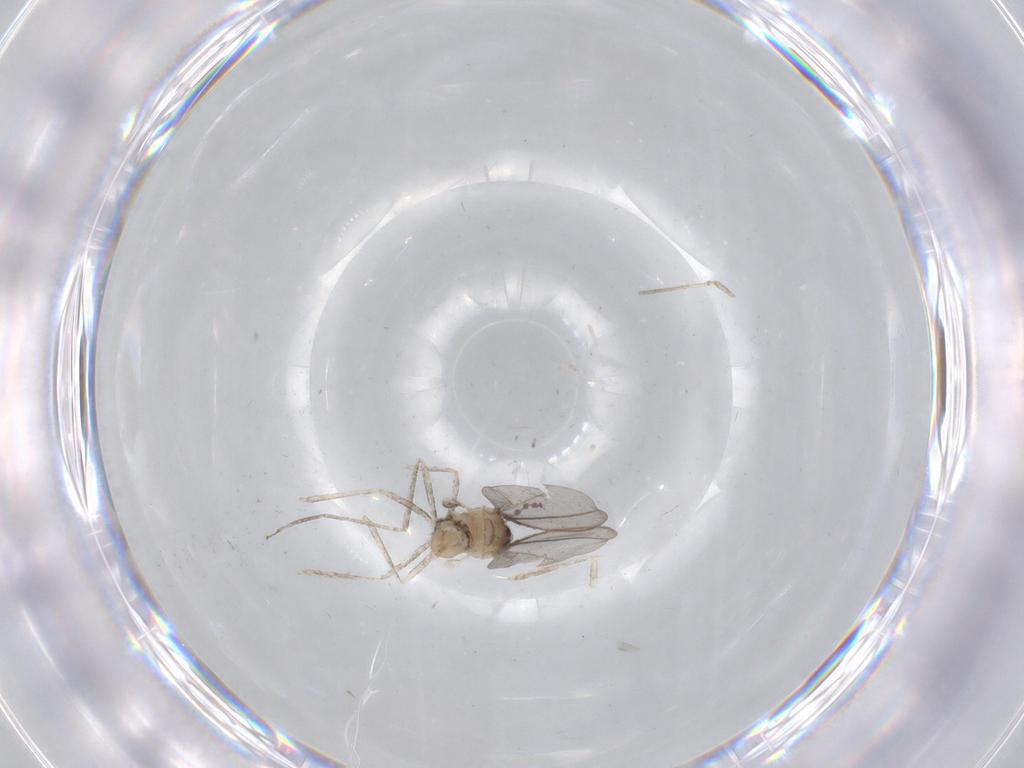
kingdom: Animalia
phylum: Arthropoda
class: Insecta
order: Diptera
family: Cecidomyiidae
